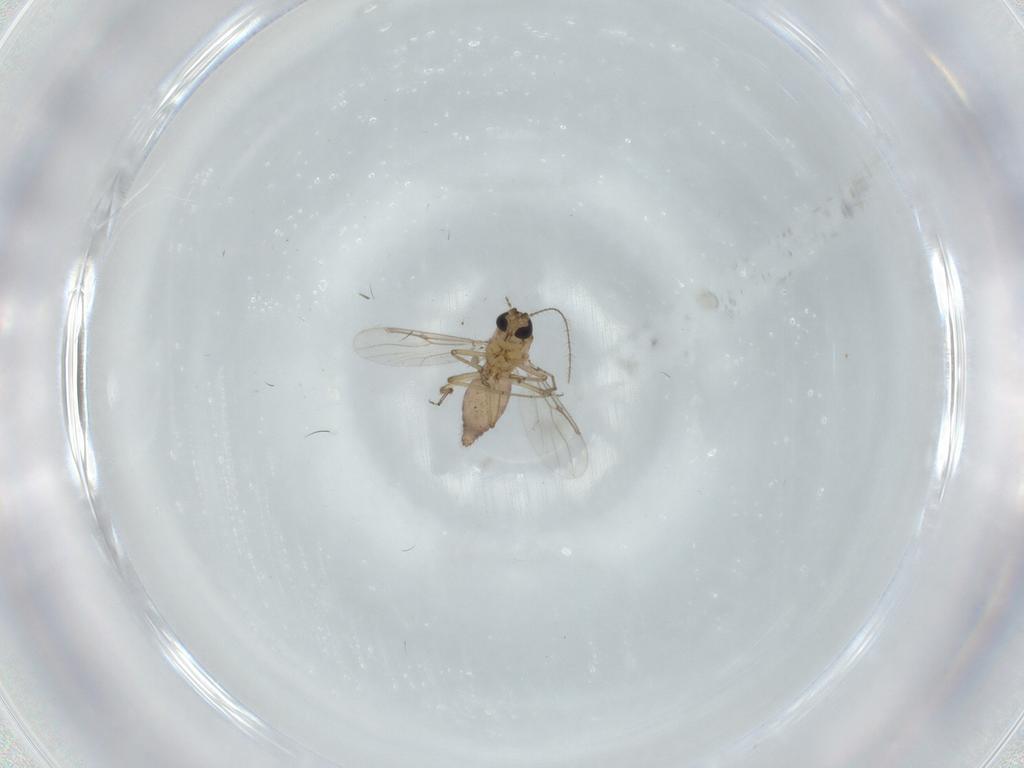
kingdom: Animalia
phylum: Arthropoda
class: Insecta
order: Diptera
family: Ceratopogonidae
